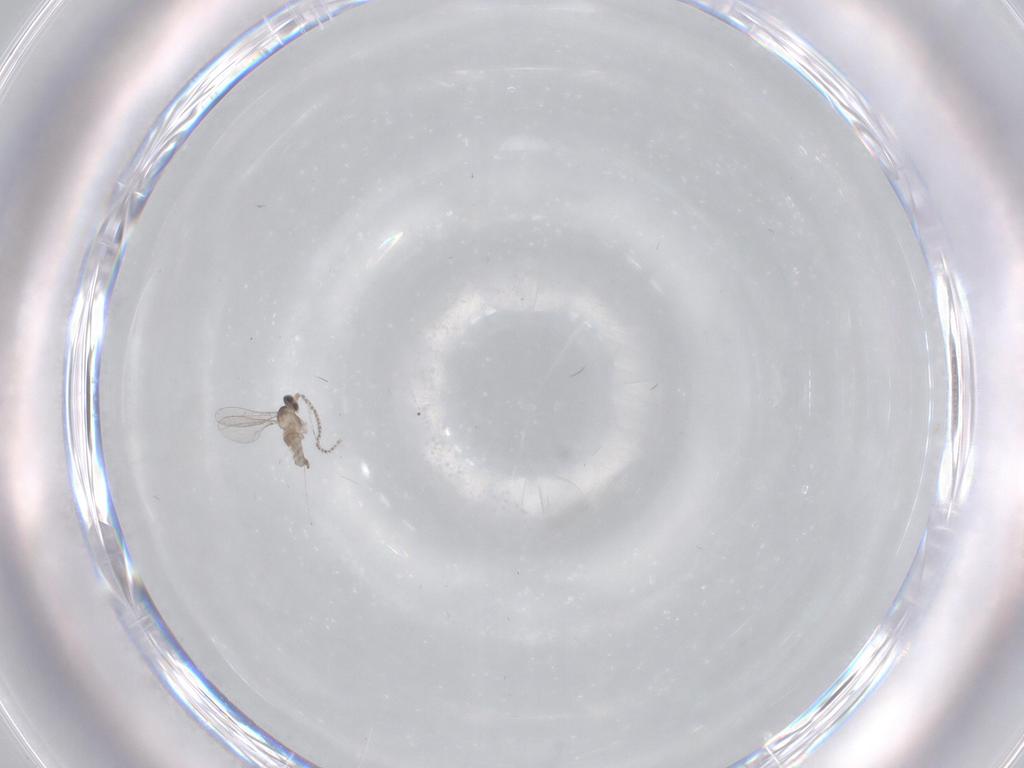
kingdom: Animalia
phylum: Arthropoda
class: Insecta
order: Diptera
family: Cecidomyiidae
